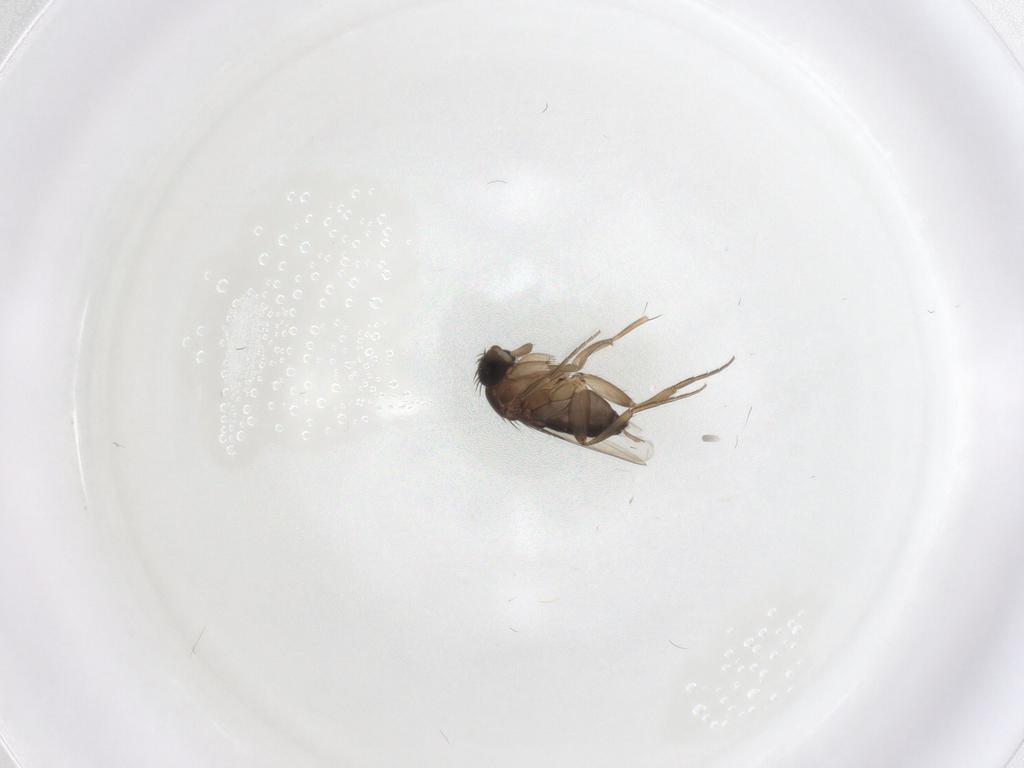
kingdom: Animalia
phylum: Arthropoda
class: Insecta
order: Diptera
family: Phoridae
